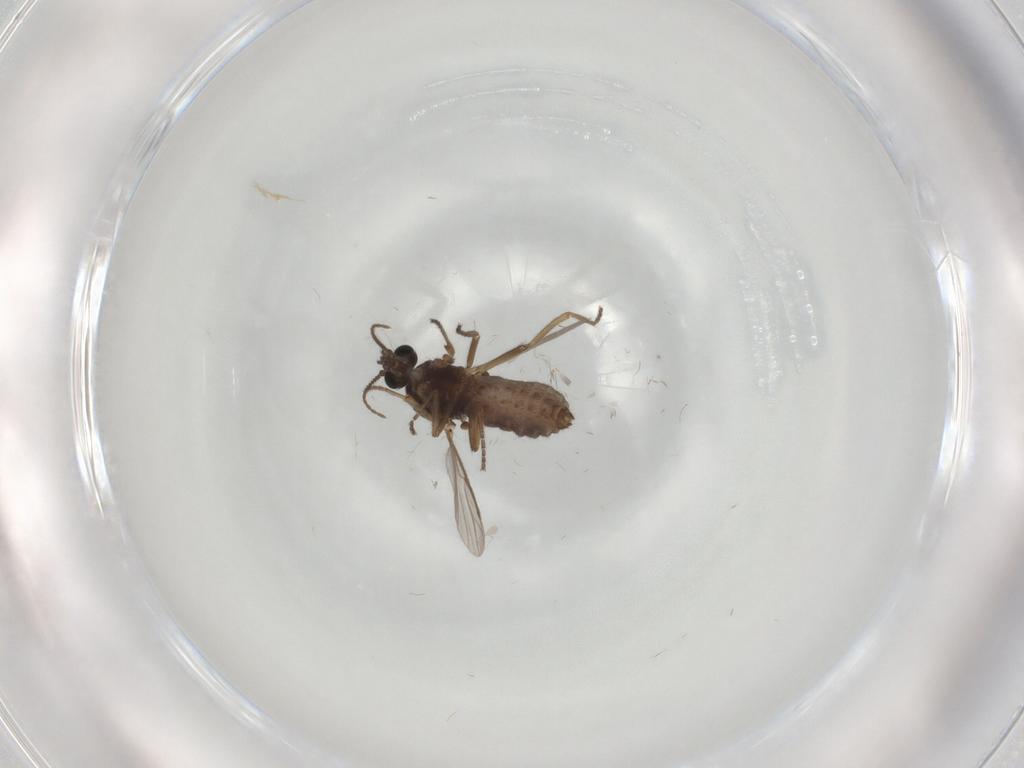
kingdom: Animalia
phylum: Arthropoda
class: Insecta
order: Diptera
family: Ceratopogonidae
